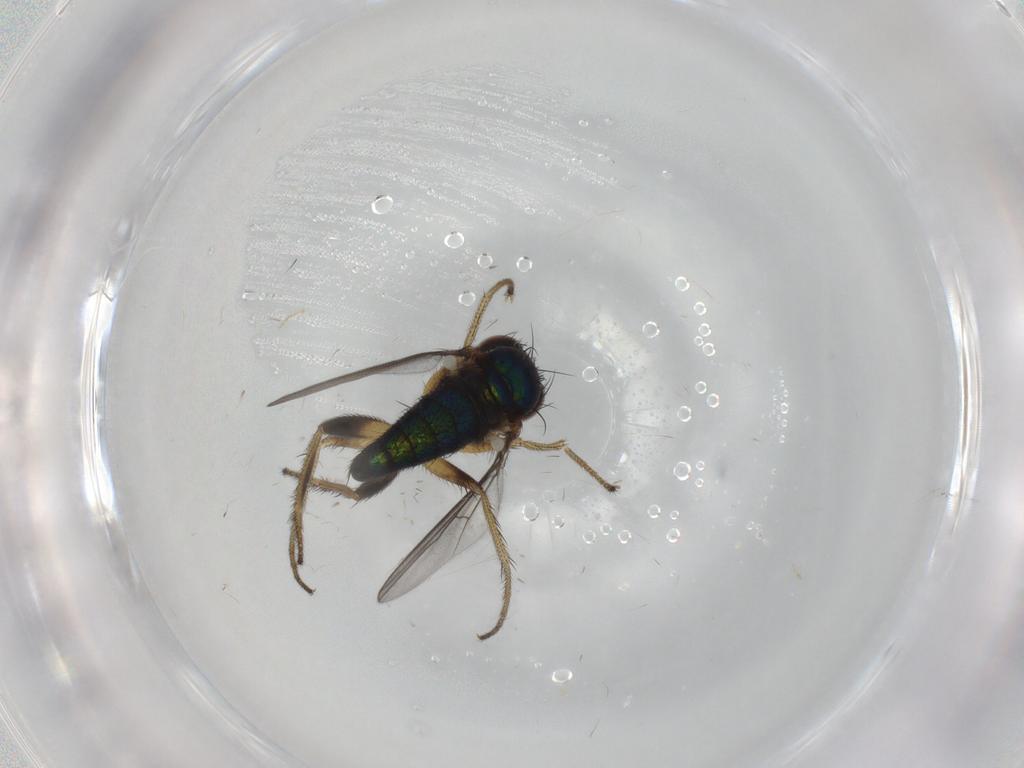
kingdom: Animalia
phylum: Arthropoda
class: Insecta
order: Diptera
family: Dolichopodidae
